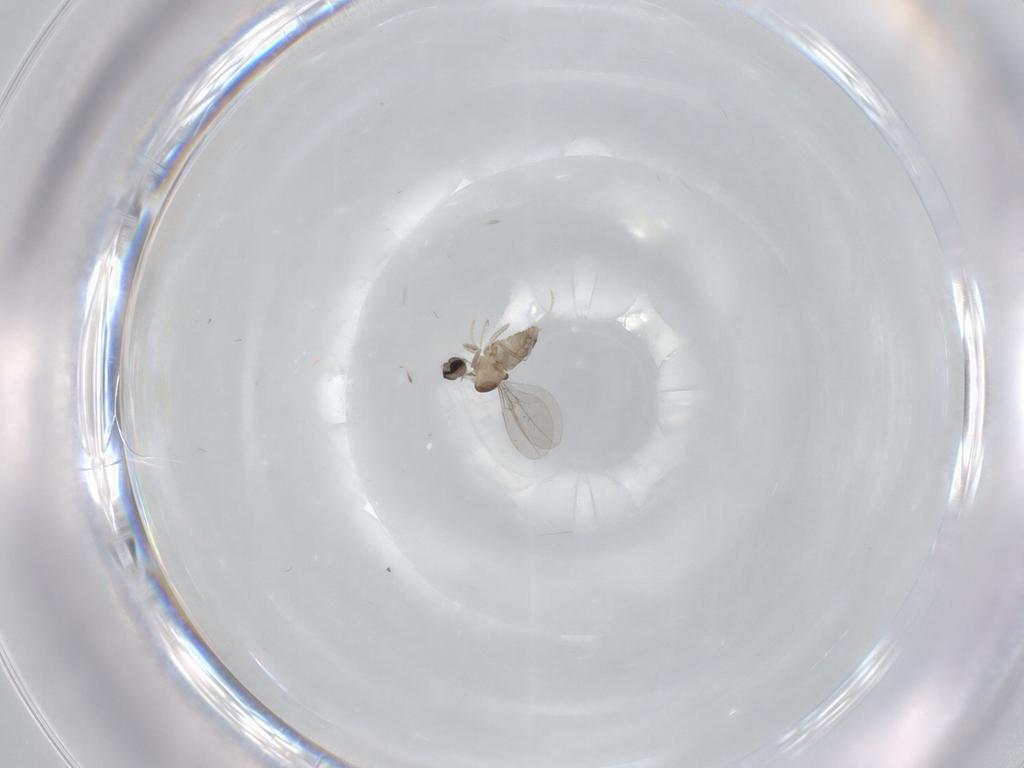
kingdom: Animalia
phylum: Arthropoda
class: Insecta
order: Diptera
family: Cecidomyiidae
